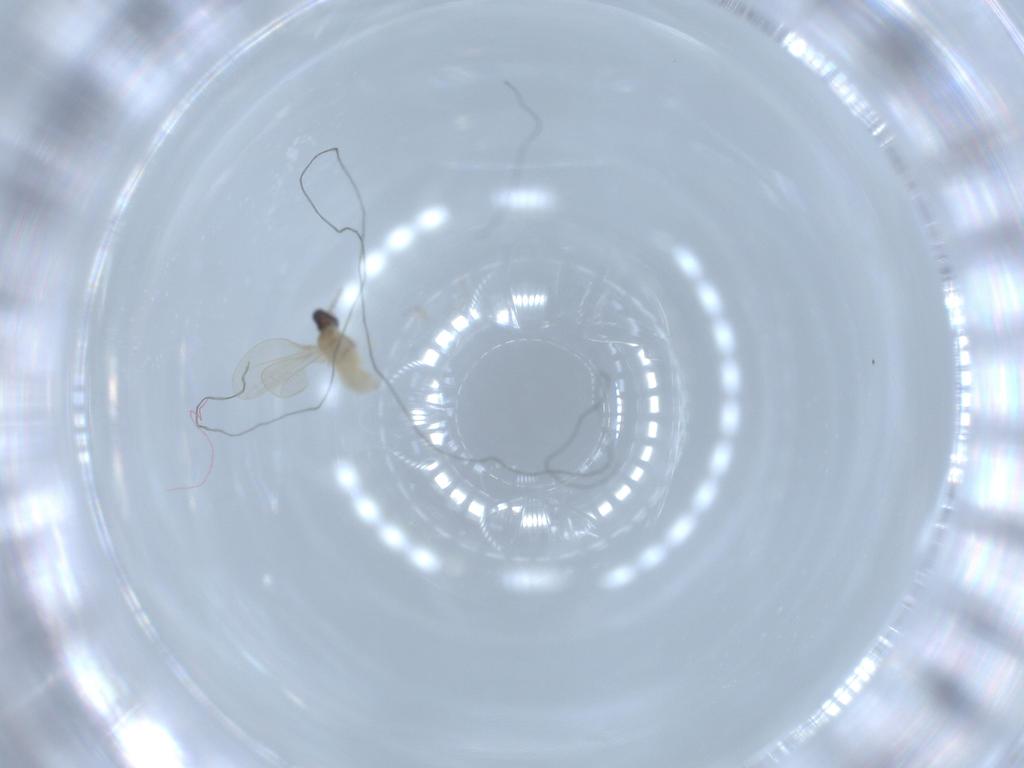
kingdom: Animalia
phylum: Arthropoda
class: Insecta
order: Diptera
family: Cecidomyiidae
